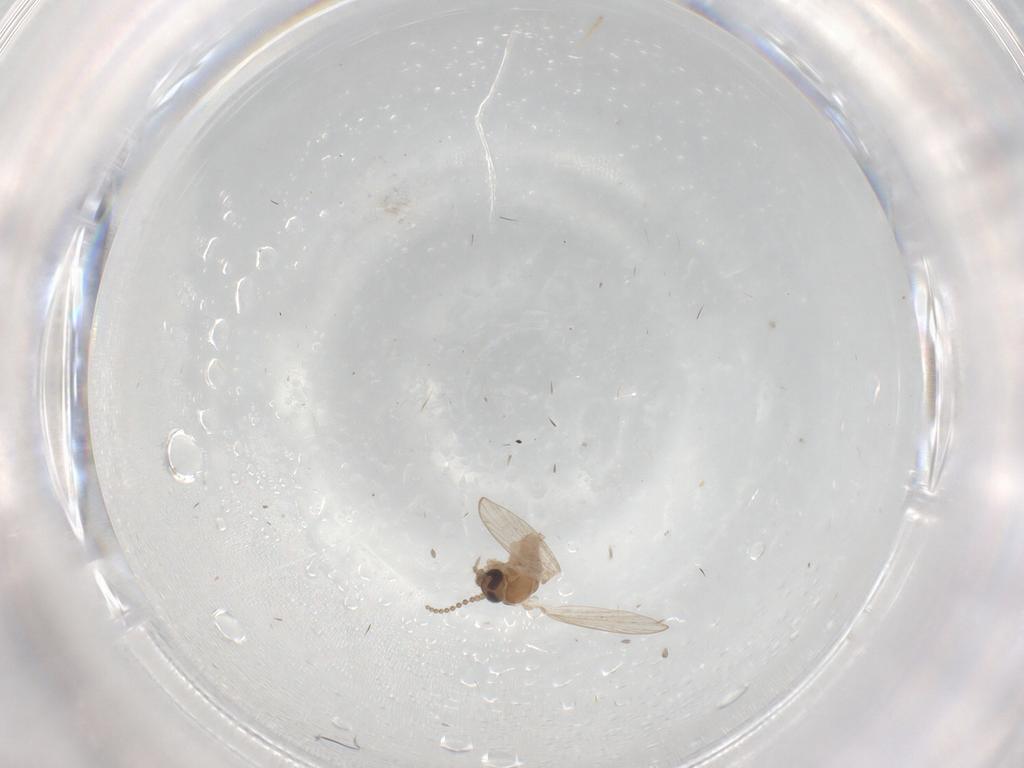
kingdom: Animalia
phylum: Arthropoda
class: Insecta
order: Diptera
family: Psychodidae
